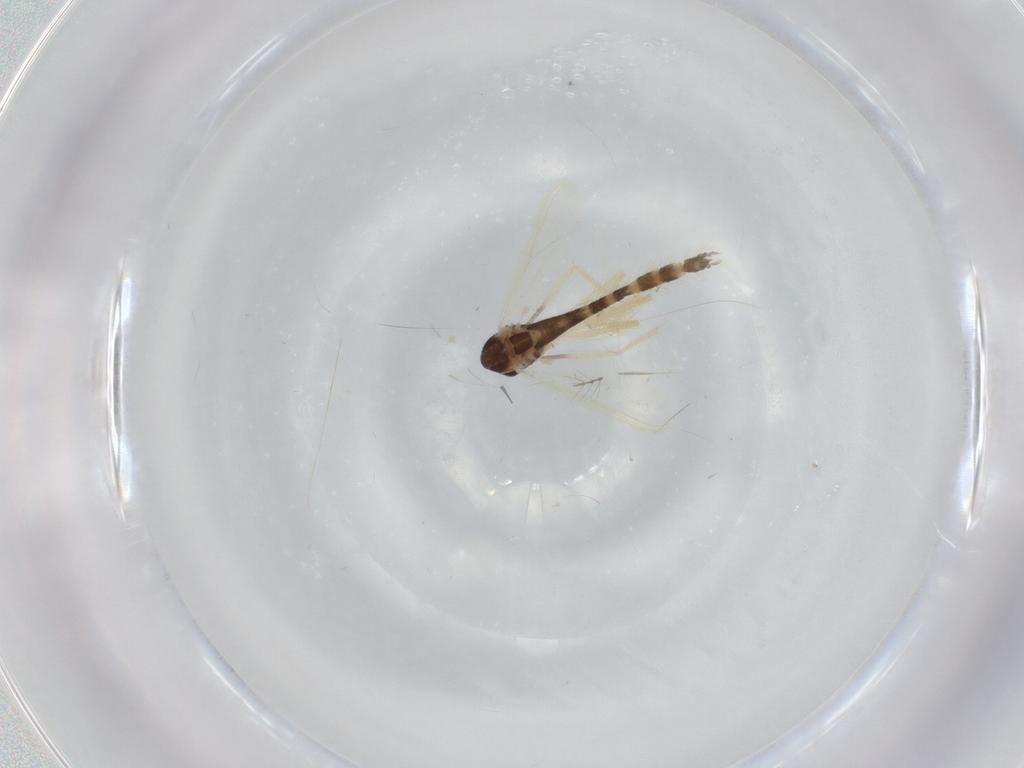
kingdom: Animalia
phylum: Arthropoda
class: Insecta
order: Diptera
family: Chironomidae
